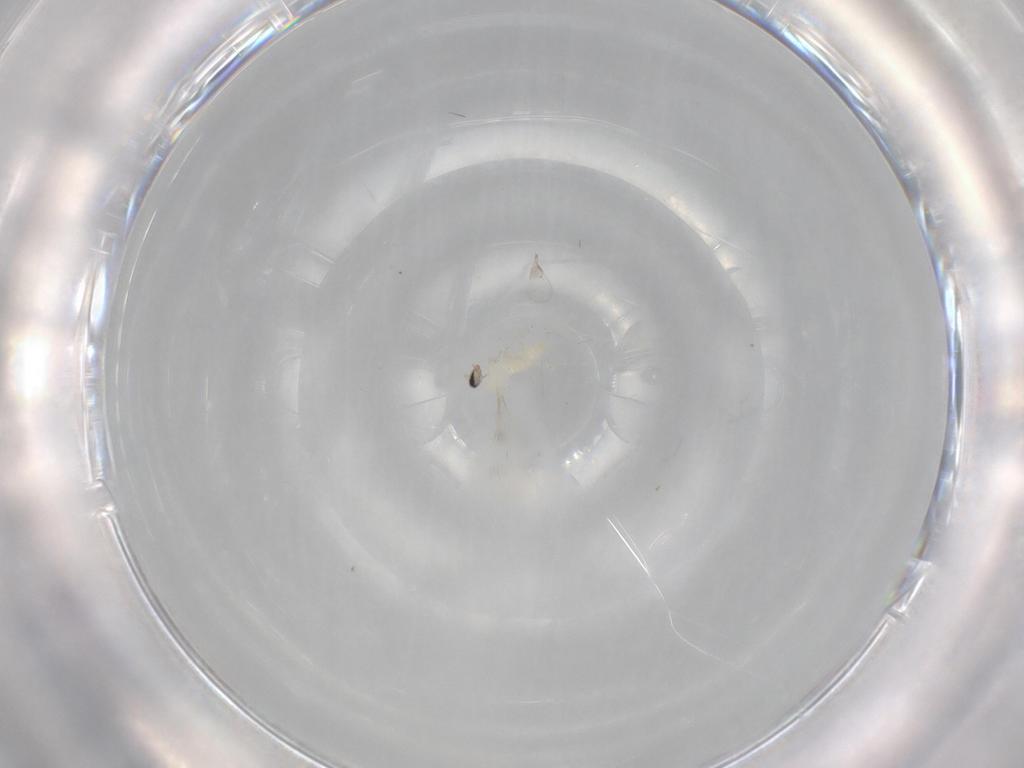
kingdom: Animalia
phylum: Arthropoda
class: Insecta
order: Diptera
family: Cecidomyiidae
